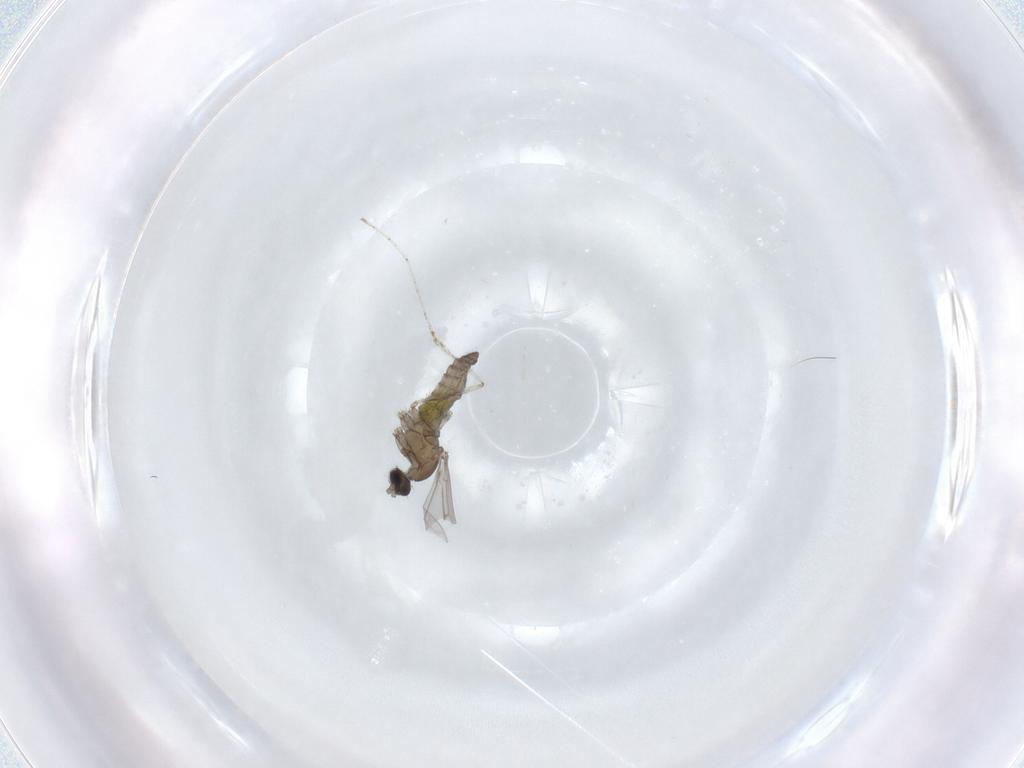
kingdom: Animalia
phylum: Arthropoda
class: Insecta
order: Diptera
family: Cecidomyiidae
